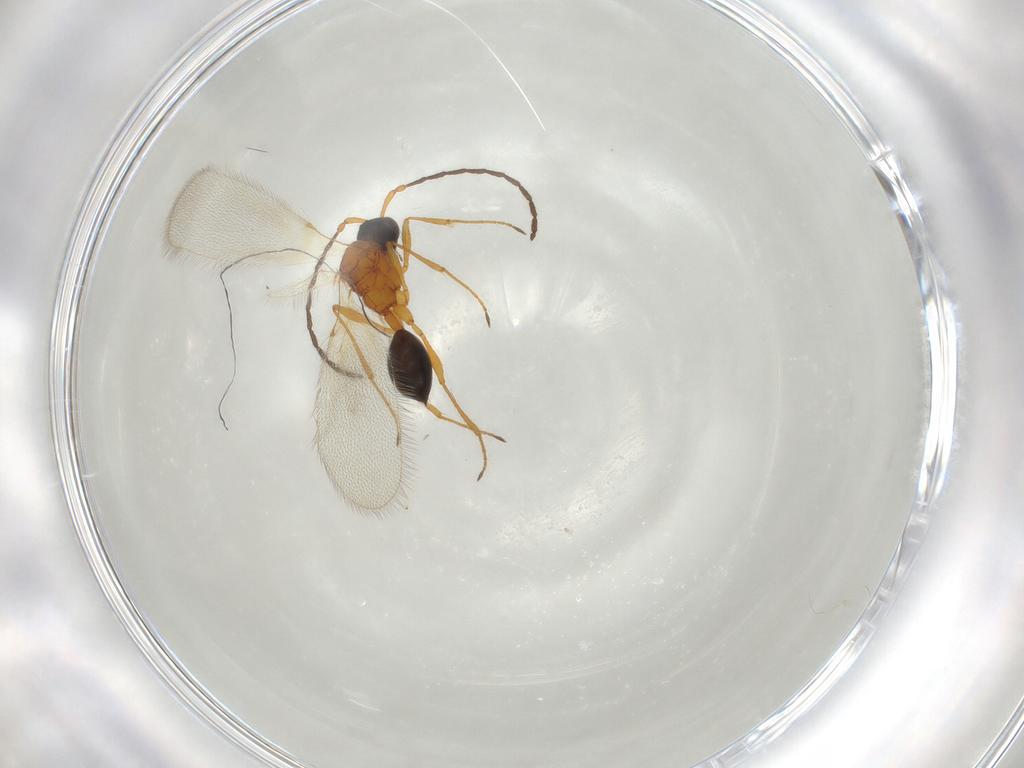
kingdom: Animalia
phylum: Arthropoda
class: Insecta
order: Hymenoptera
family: Diapriidae
